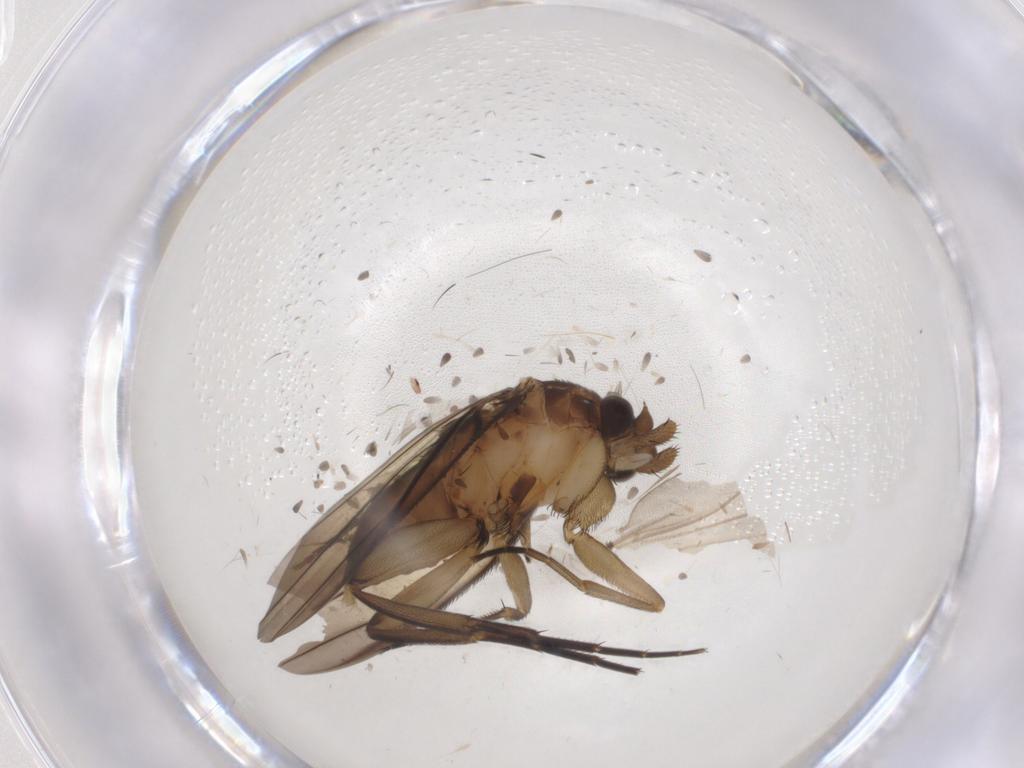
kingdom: Animalia
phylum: Arthropoda
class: Insecta
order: Diptera
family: Phoridae
